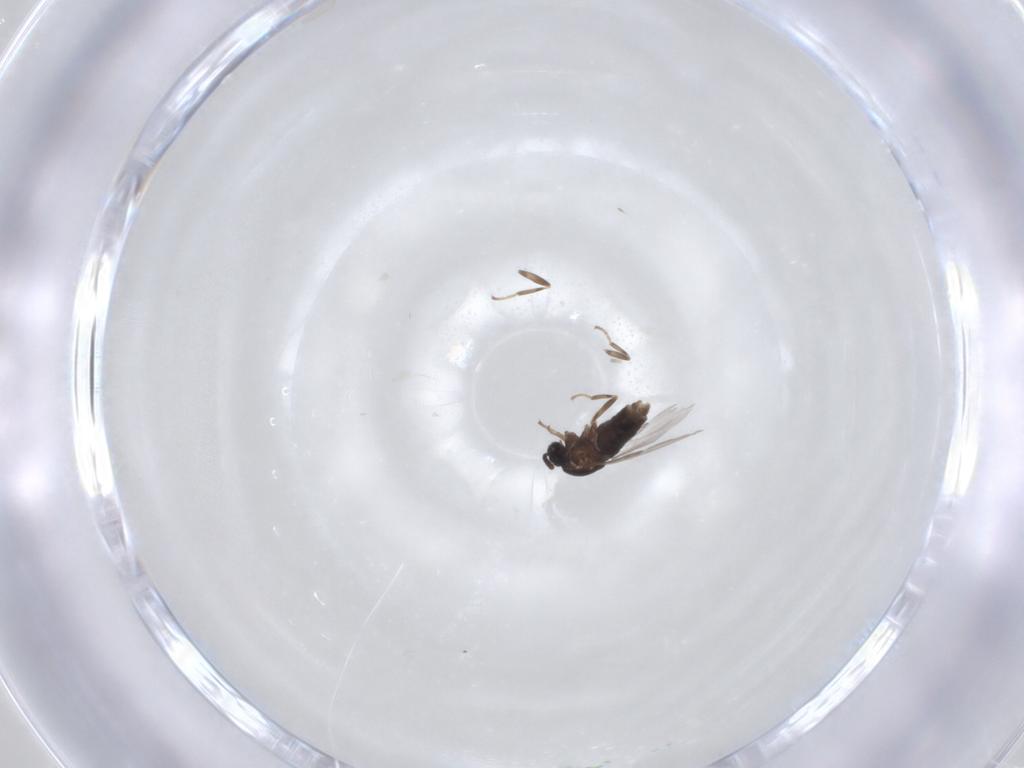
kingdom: Animalia
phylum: Arthropoda
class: Insecta
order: Diptera
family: Scatopsidae
